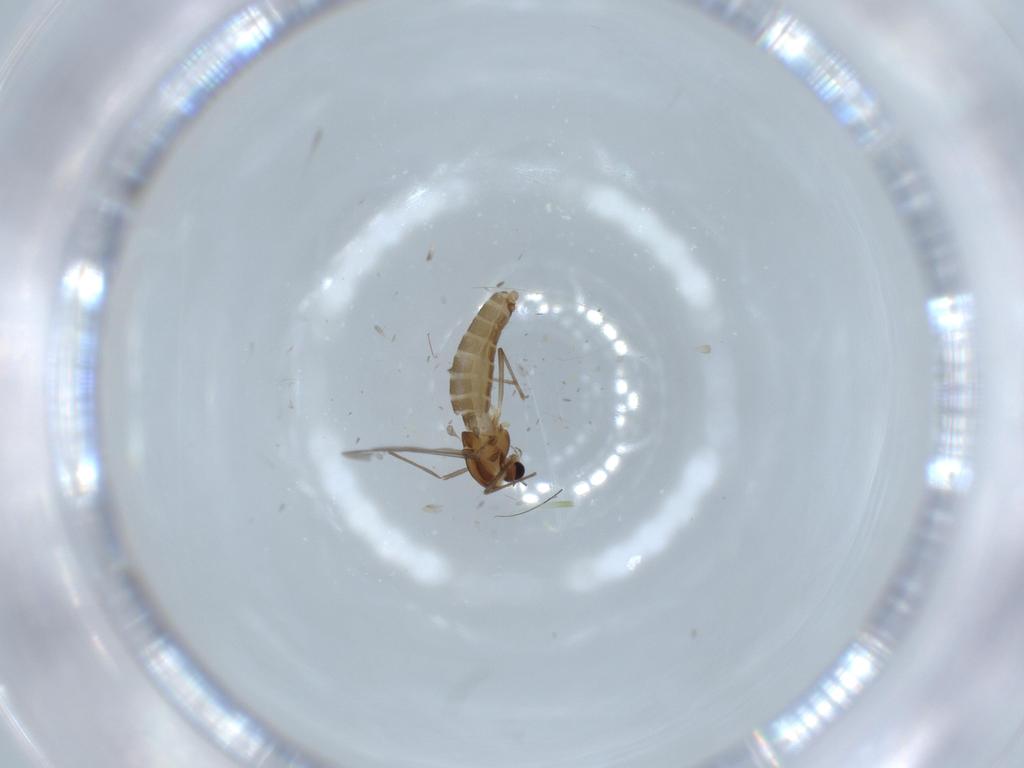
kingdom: Animalia
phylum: Arthropoda
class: Insecta
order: Diptera
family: Chironomidae
